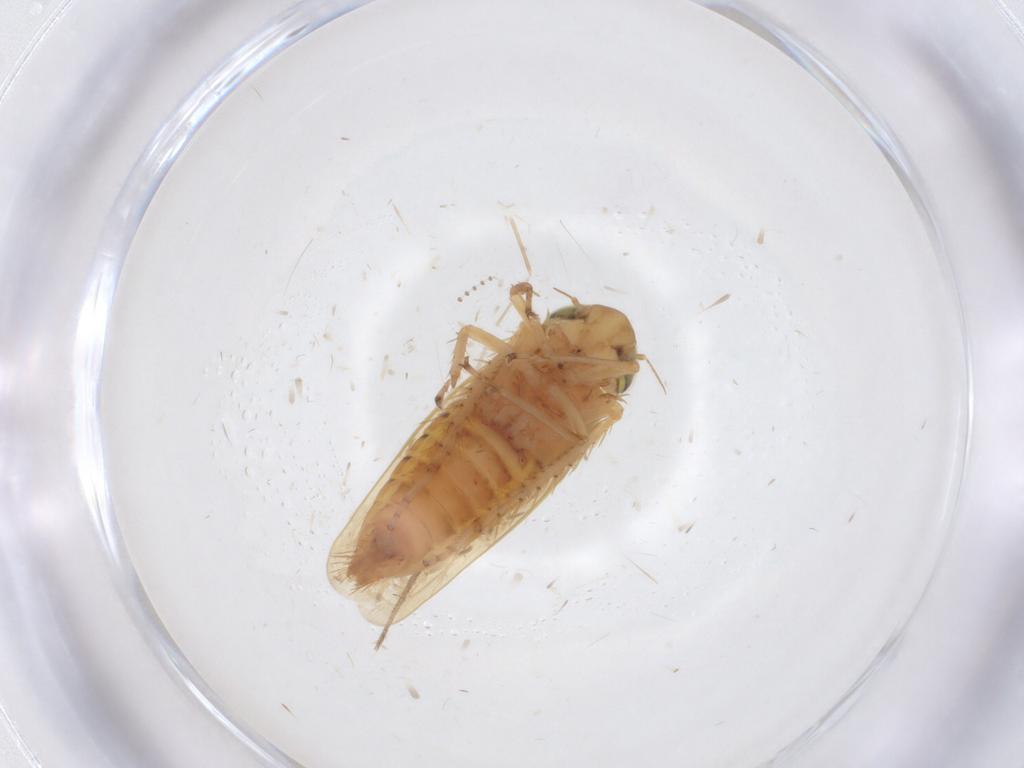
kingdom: Animalia
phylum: Arthropoda
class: Insecta
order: Hemiptera
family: Cicadellidae
